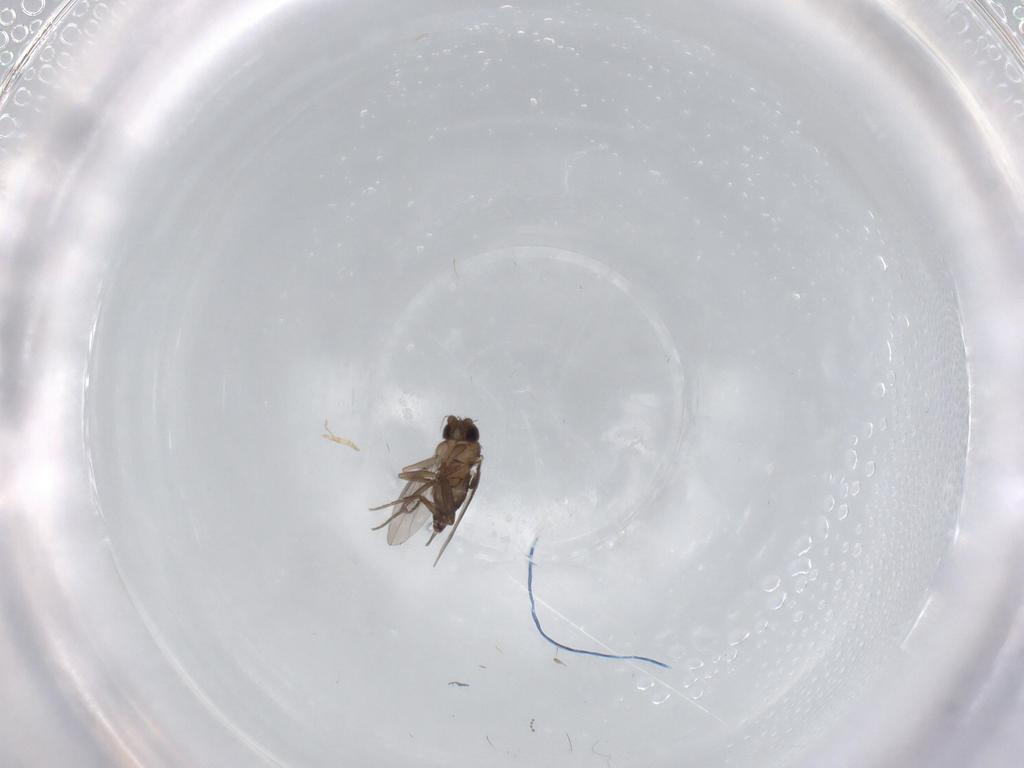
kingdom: Animalia
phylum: Arthropoda
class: Insecta
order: Diptera
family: Phoridae
